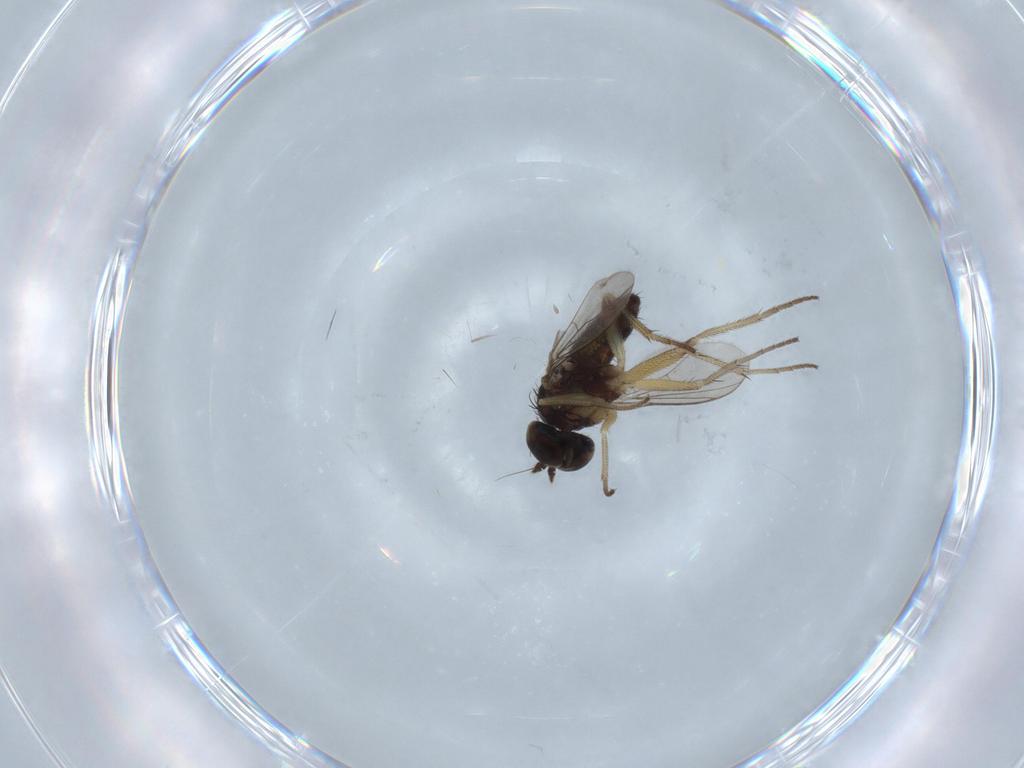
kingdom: Animalia
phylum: Arthropoda
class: Insecta
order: Diptera
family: Dolichopodidae
